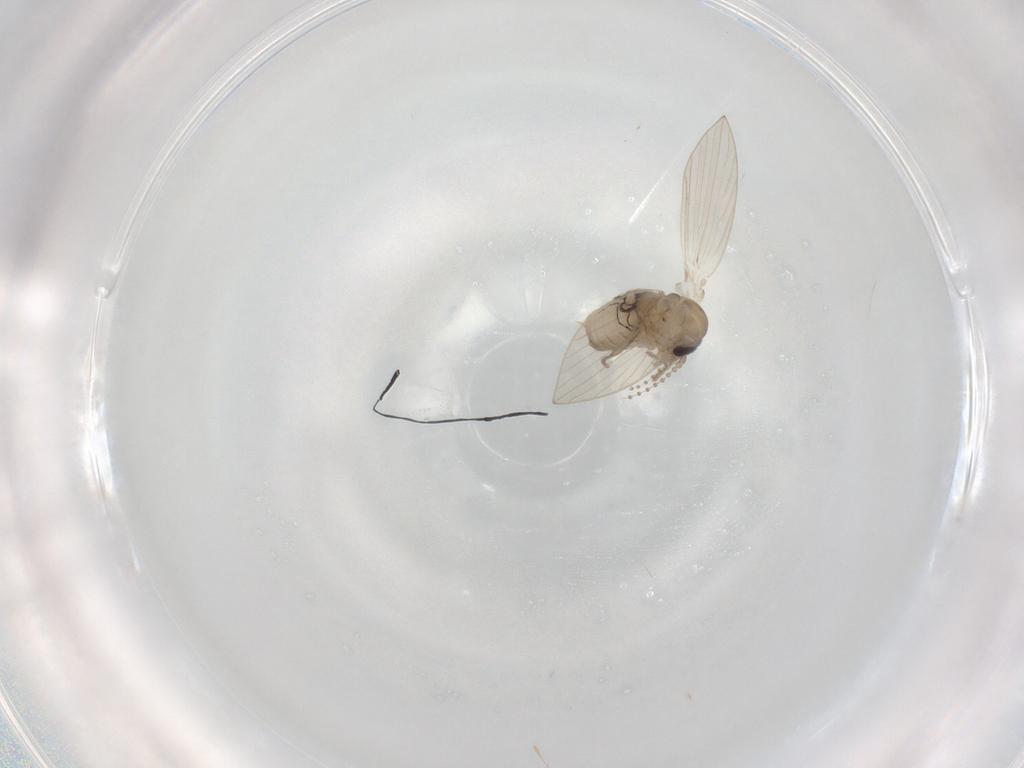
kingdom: Animalia
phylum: Arthropoda
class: Insecta
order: Diptera
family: Psychodidae
